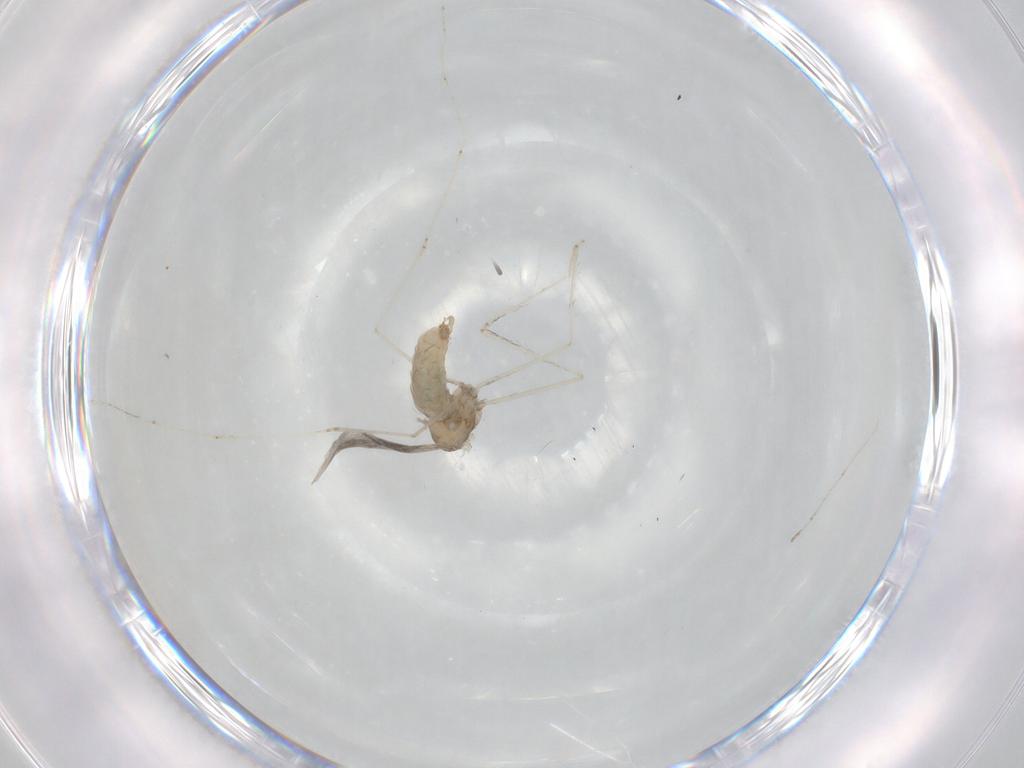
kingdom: Animalia
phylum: Arthropoda
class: Insecta
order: Diptera
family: Cecidomyiidae
